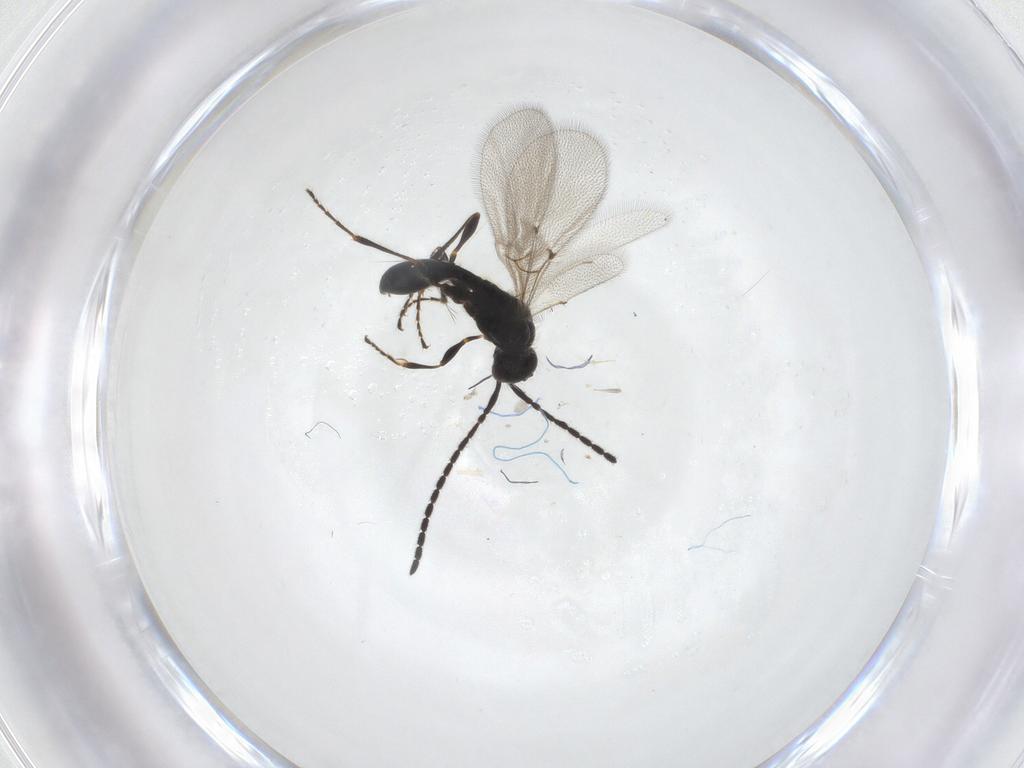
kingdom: Animalia
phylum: Arthropoda
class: Insecta
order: Hymenoptera
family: Diapriidae
